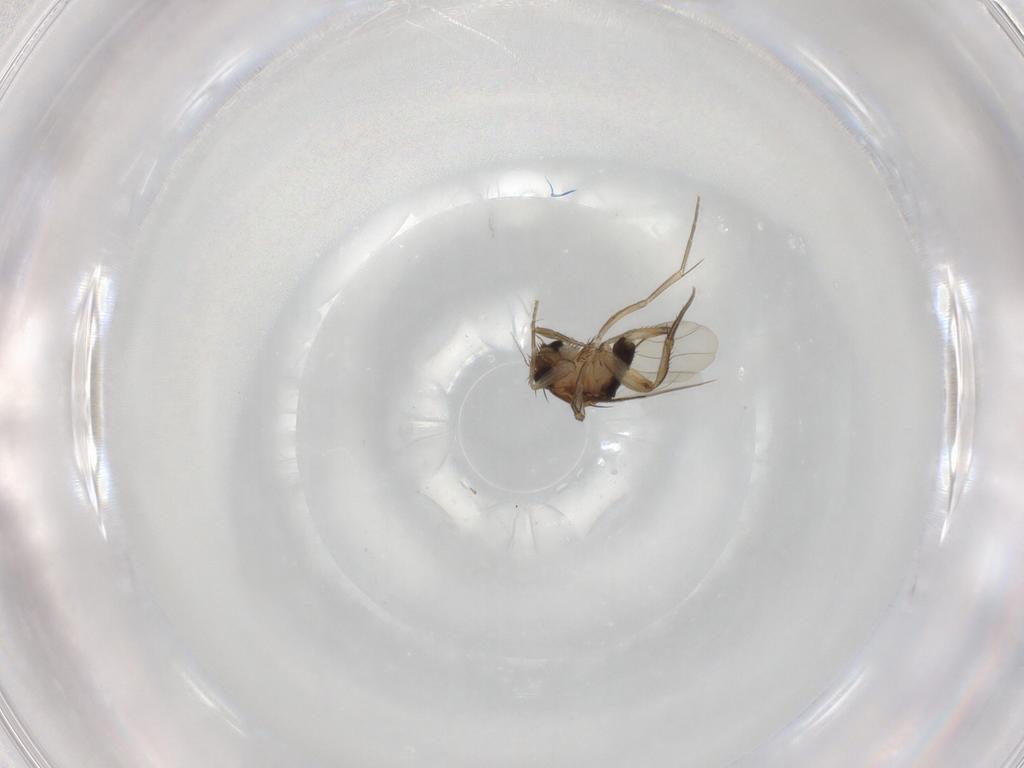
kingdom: Animalia
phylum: Arthropoda
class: Insecta
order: Diptera
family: Phoridae
